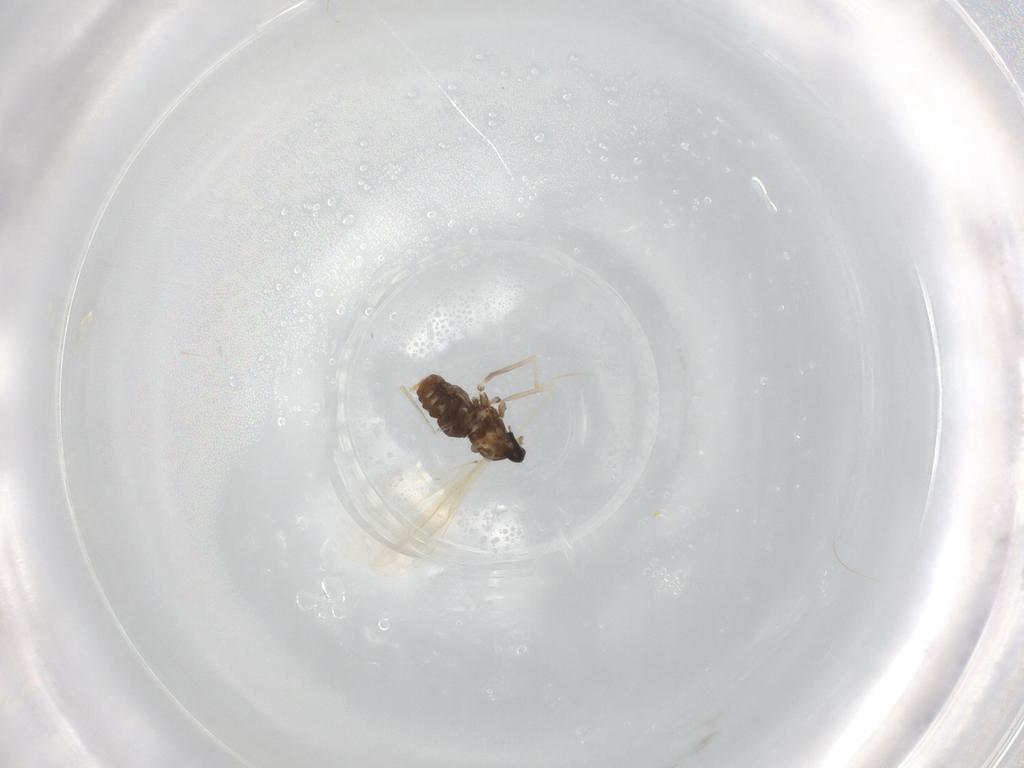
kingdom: Animalia
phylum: Arthropoda
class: Insecta
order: Diptera
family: Cecidomyiidae
